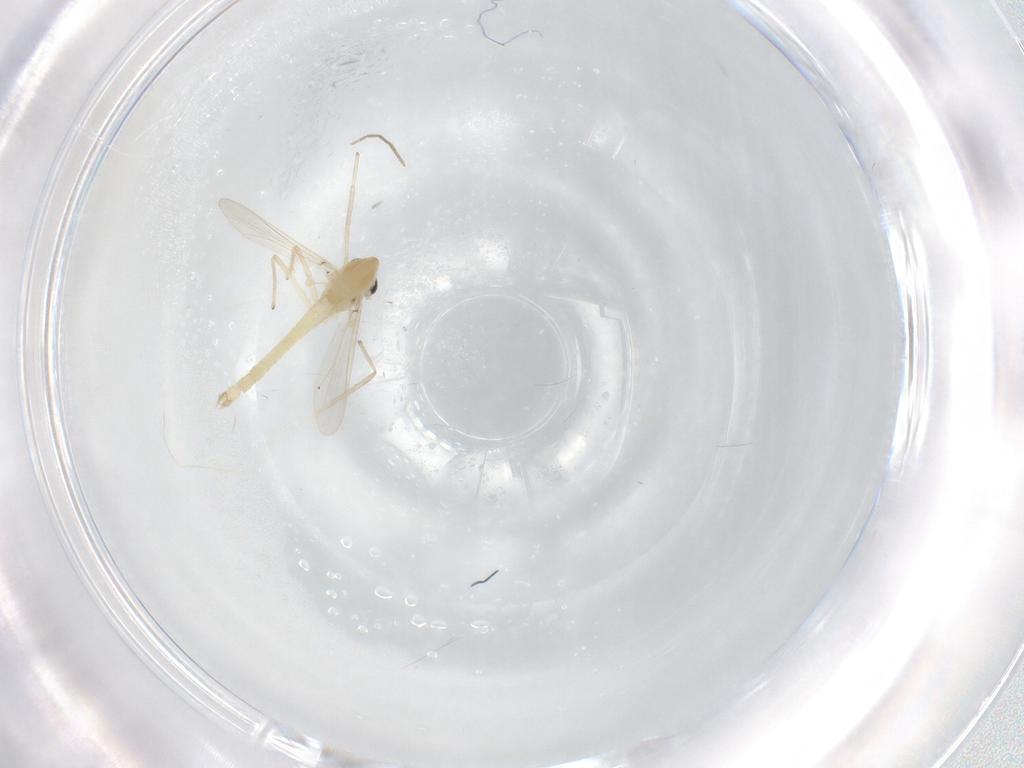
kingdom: Animalia
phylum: Arthropoda
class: Insecta
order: Diptera
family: Chironomidae
